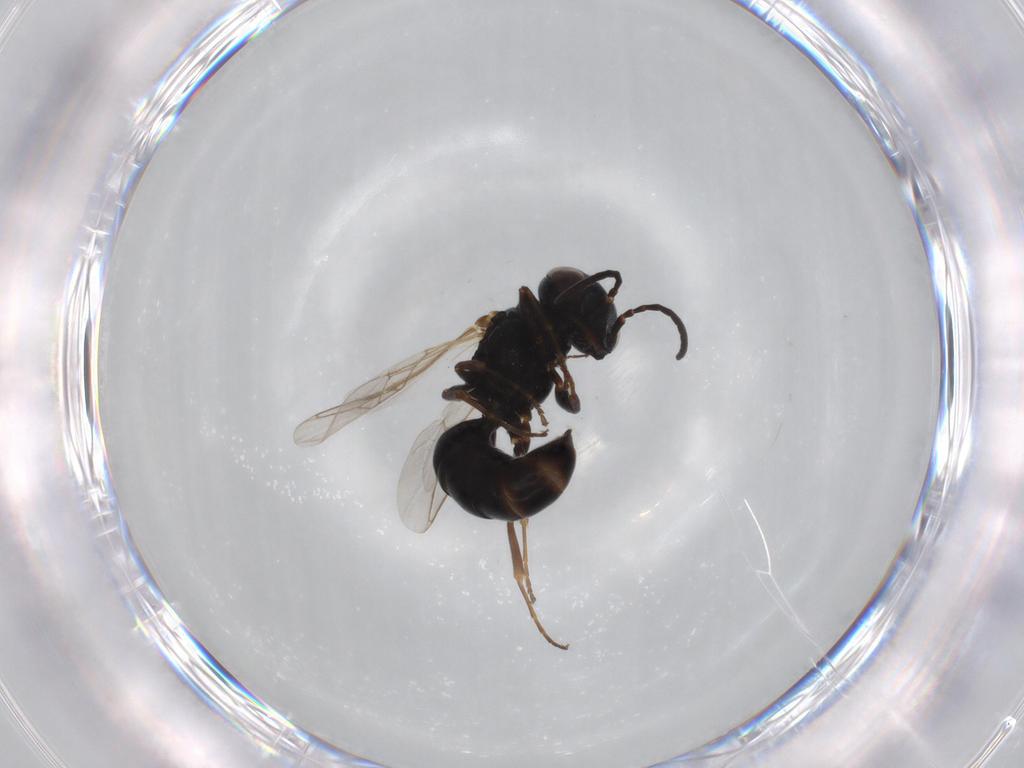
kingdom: Animalia
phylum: Arthropoda
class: Insecta
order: Hymenoptera
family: Crabronidae
